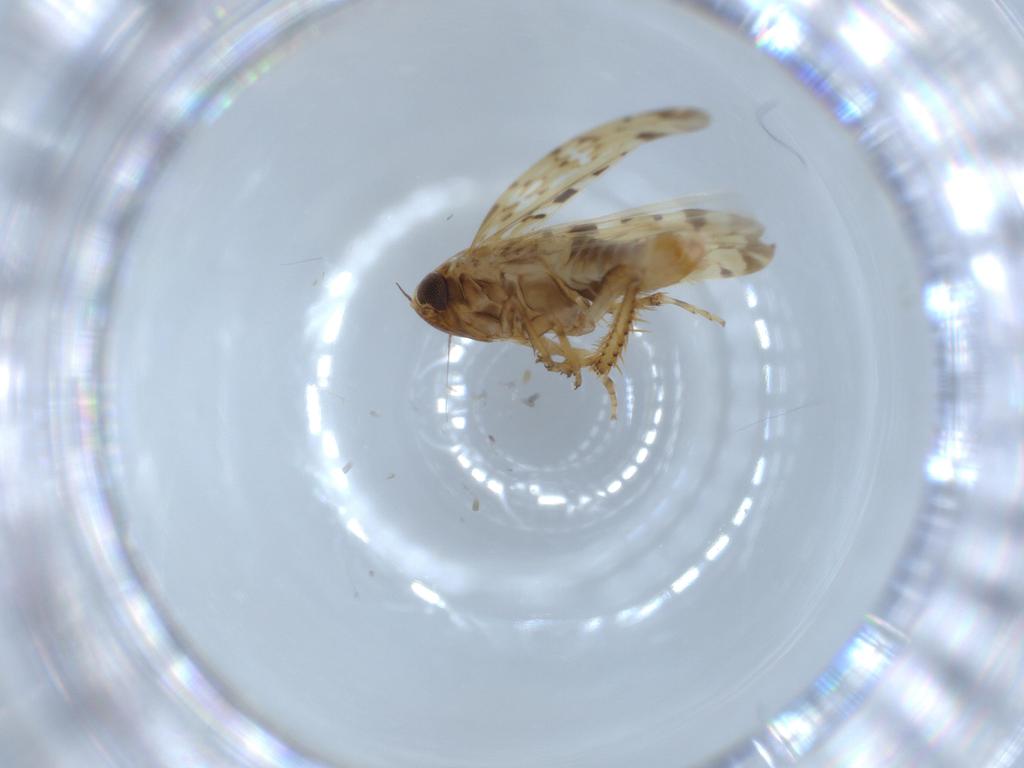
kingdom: Animalia
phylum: Arthropoda
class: Insecta
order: Hemiptera
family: Cicadellidae
